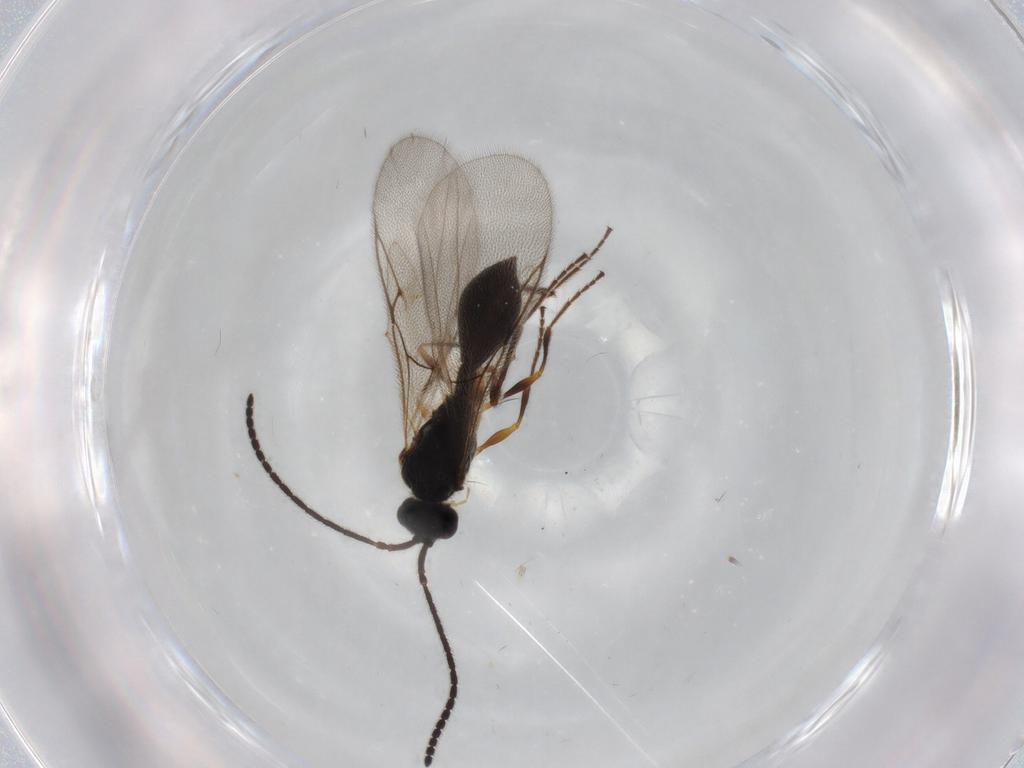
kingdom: Animalia
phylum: Arthropoda
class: Insecta
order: Hymenoptera
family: Diapriidae
